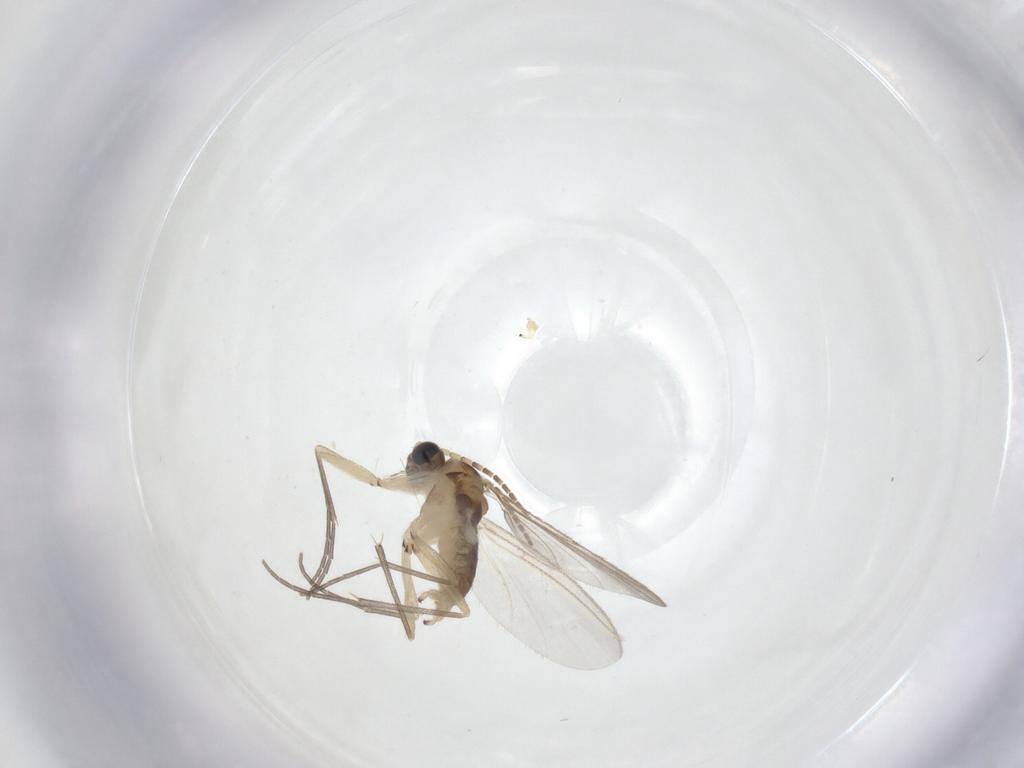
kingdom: Animalia
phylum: Arthropoda
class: Insecta
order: Diptera
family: Sciaridae
